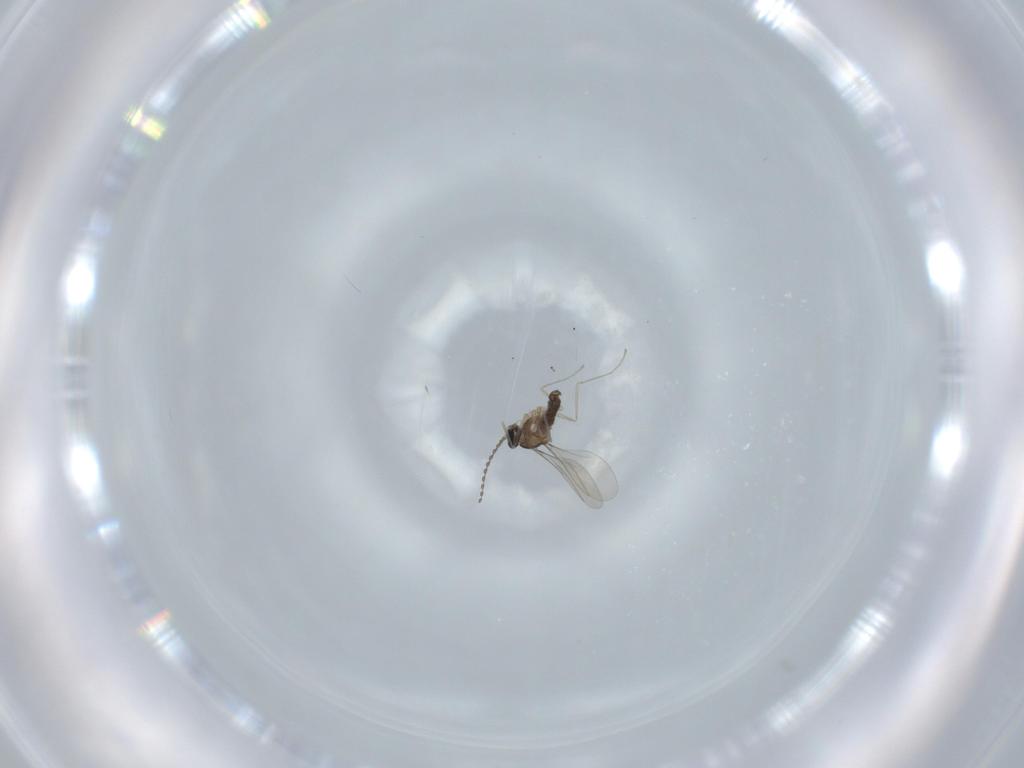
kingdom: Animalia
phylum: Arthropoda
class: Insecta
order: Diptera
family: Cecidomyiidae
